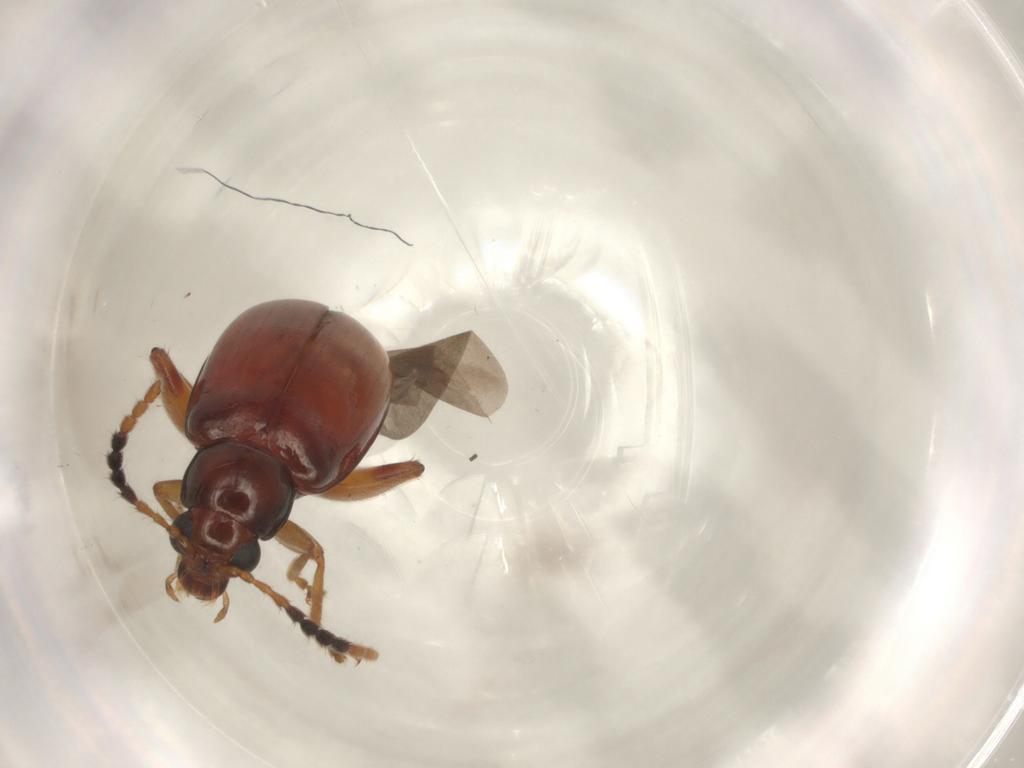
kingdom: Animalia
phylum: Arthropoda
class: Insecta
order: Coleoptera
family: Chrysomelidae
